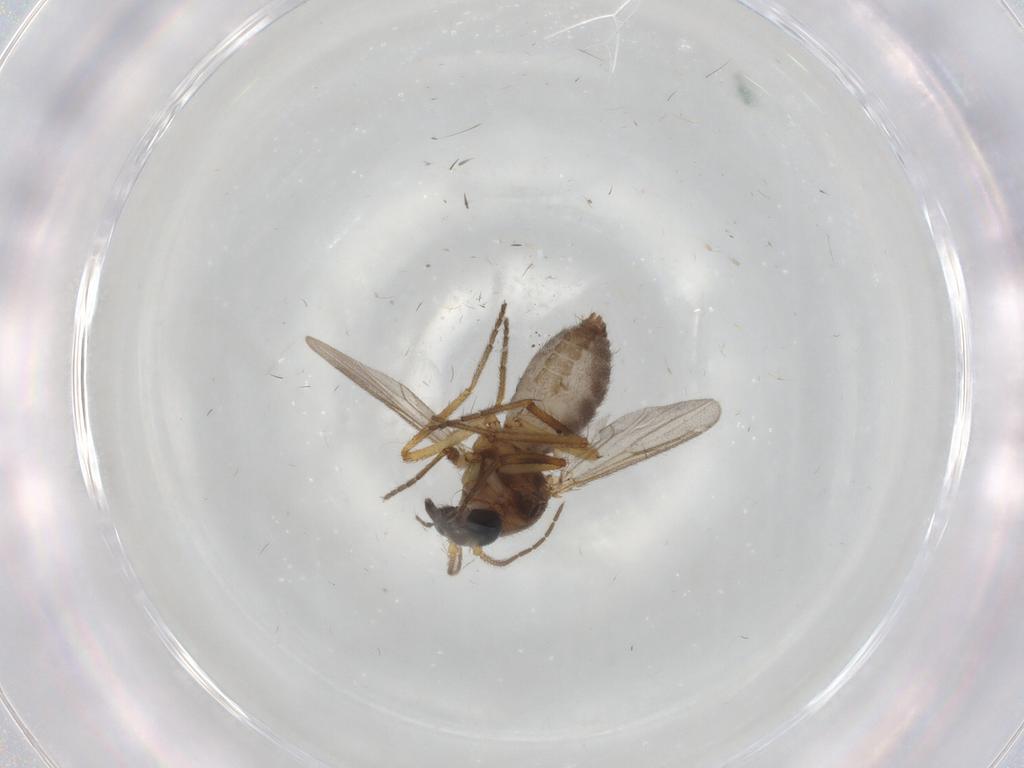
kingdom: Animalia
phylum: Arthropoda
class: Insecta
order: Diptera
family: Ceratopogonidae
